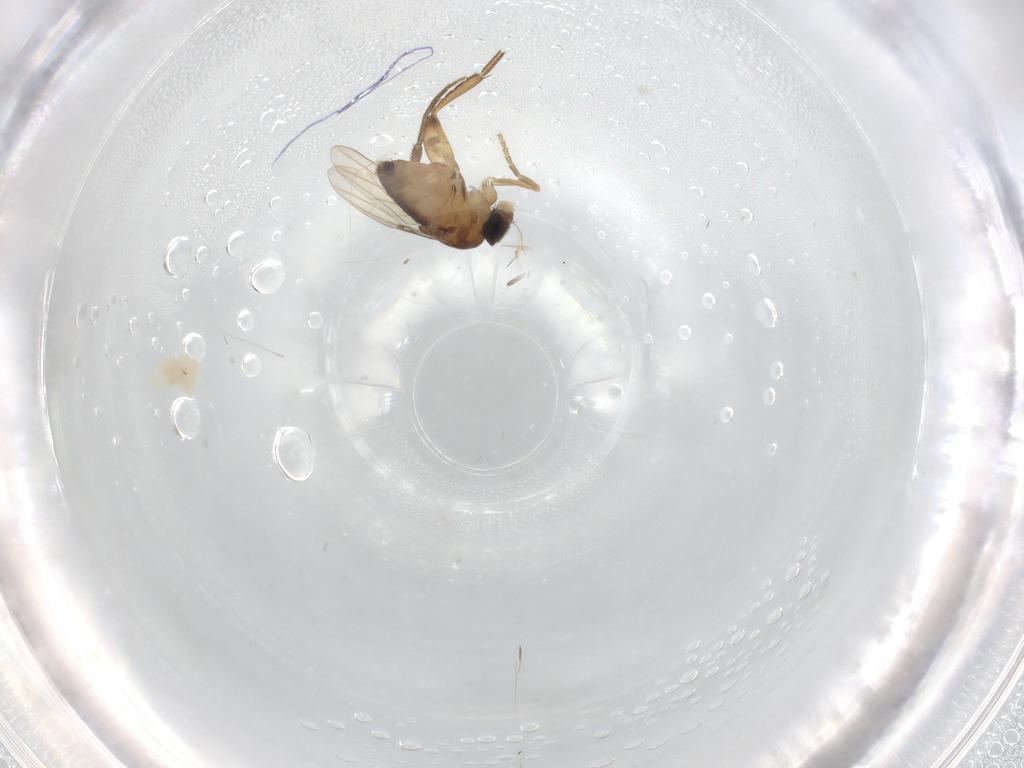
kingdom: Animalia
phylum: Arthropoda
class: Insecta
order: Diptera
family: Phoridae
